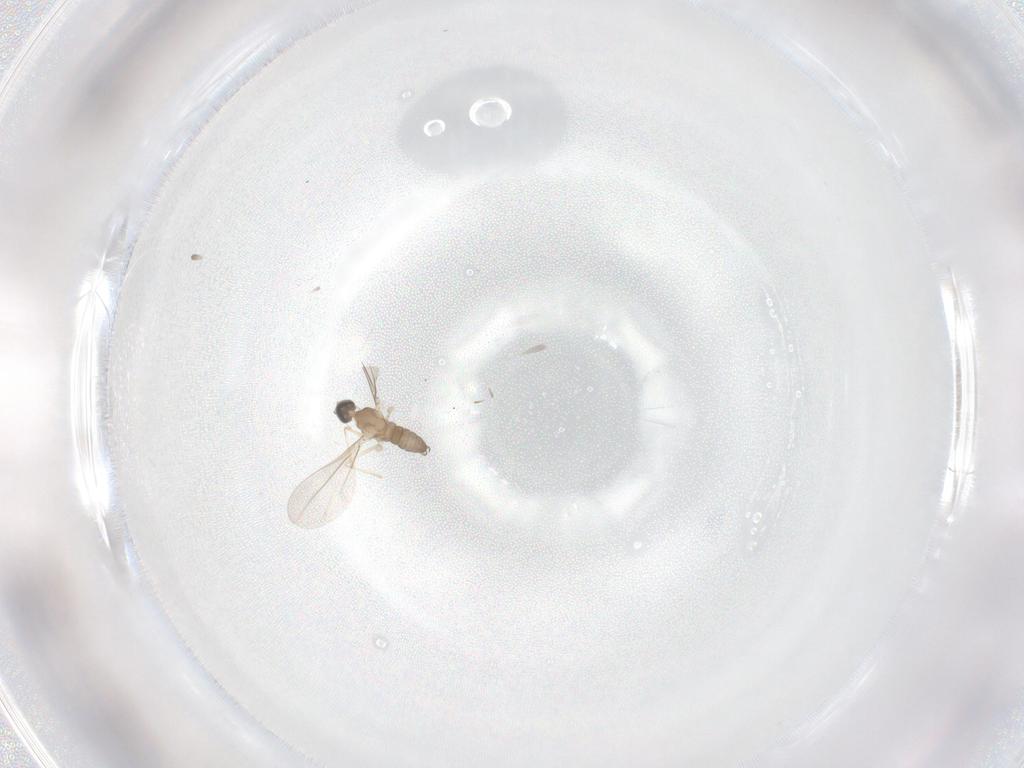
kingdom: Animalia
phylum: Arthropoda
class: Insecta
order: Diptera
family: Cecidomyiidae
